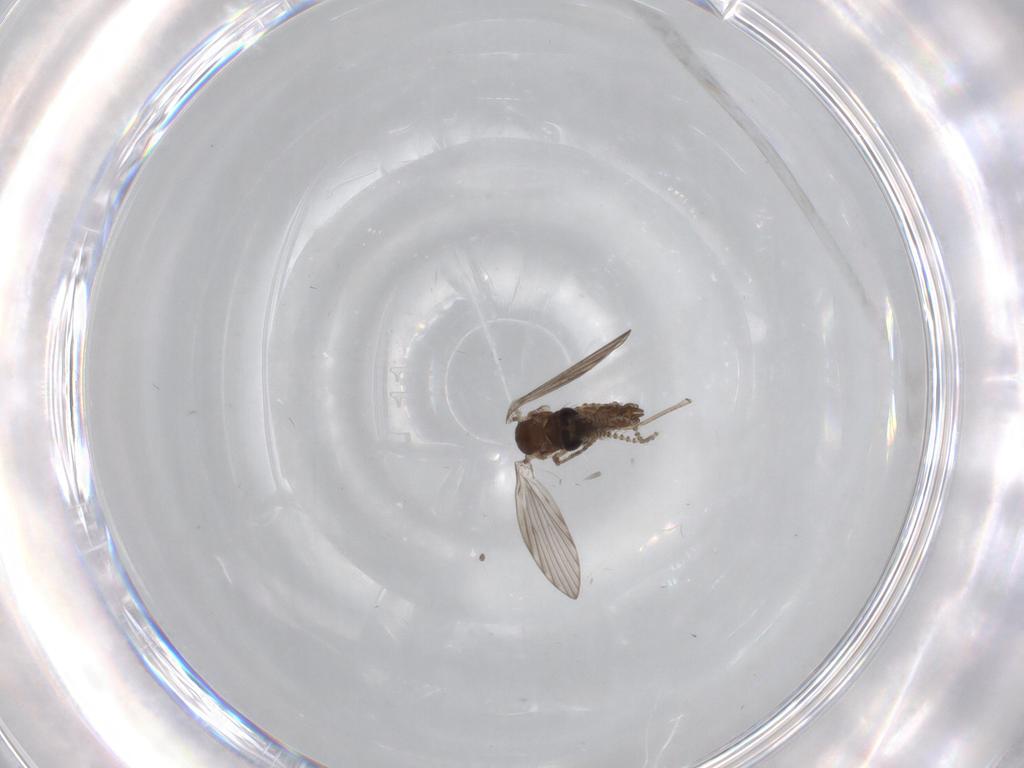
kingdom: Animalia
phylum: Arthropoda
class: Insecta
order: Diptera
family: Psychodidae
